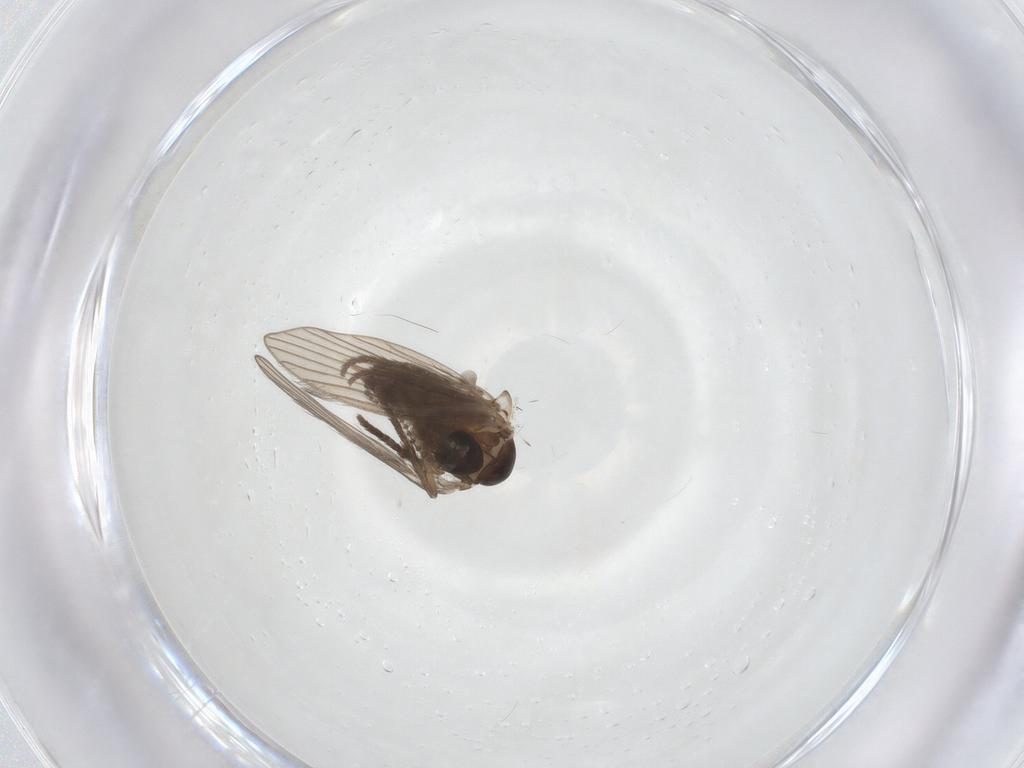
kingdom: Animalia
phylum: Arthropoda
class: Insecta
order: Diptera
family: Psychodidae
